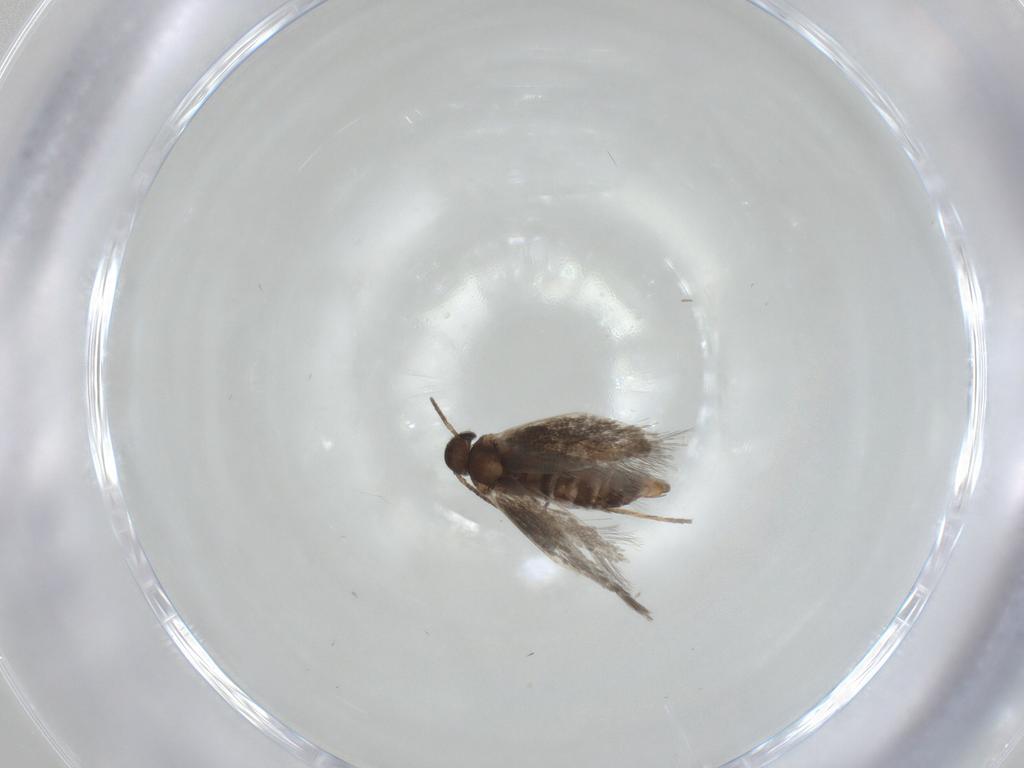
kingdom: Animalia
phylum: Arthropoda
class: Insecta
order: Lepidoptera
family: Heliozelidae
